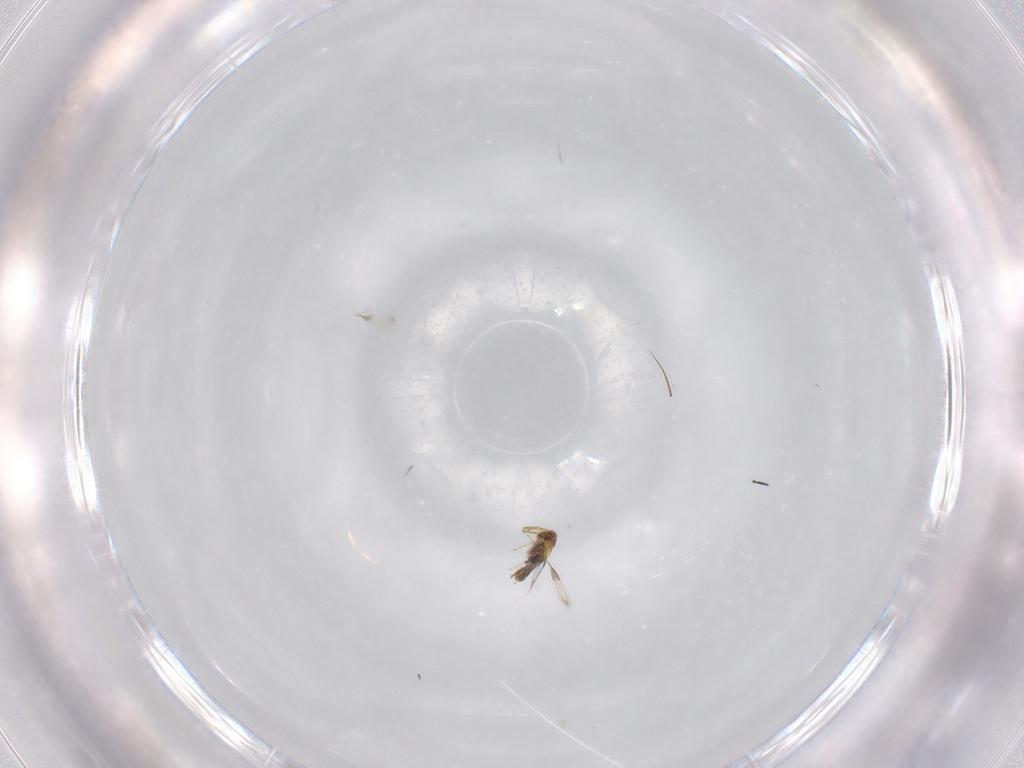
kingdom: Animalia
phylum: Arthropoda
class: Insecta
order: Hymenoptera
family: Aphelinidae
